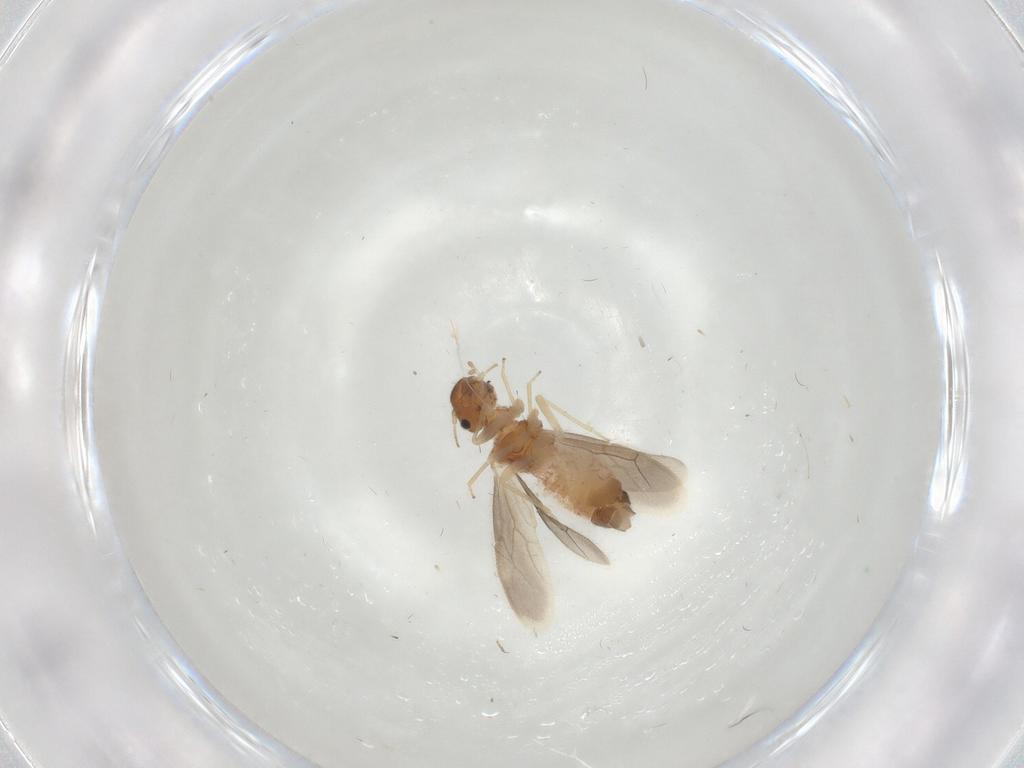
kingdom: Animalia
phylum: Arthropoda
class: Insecta
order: Psocodea
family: Archipsocidae
